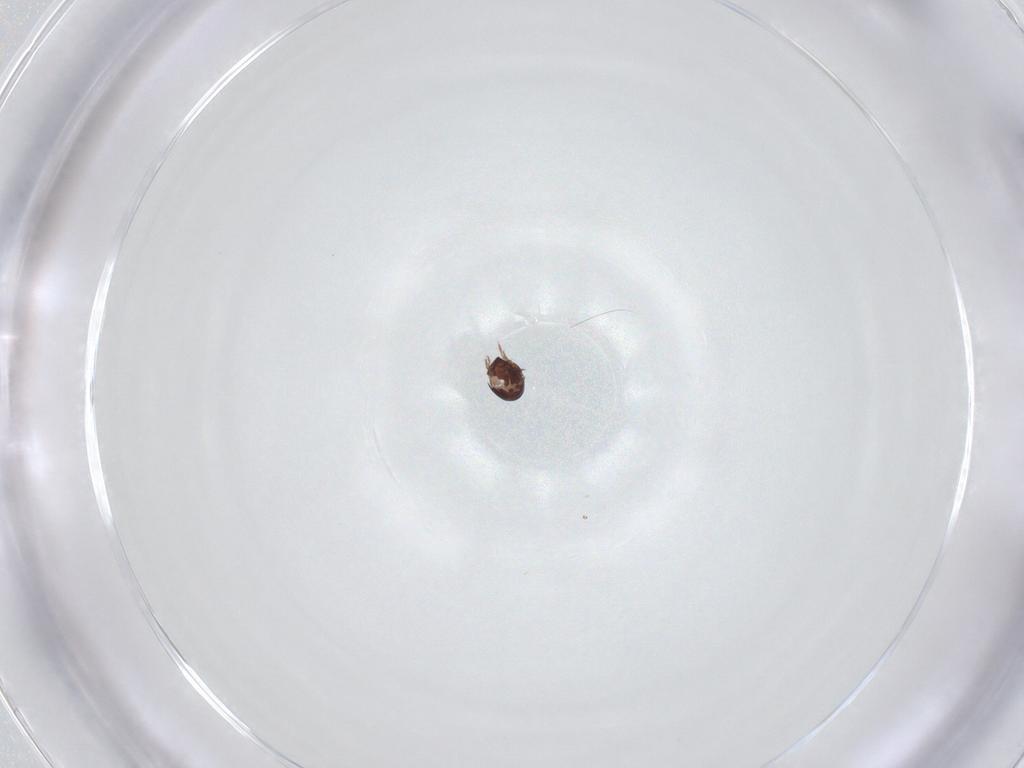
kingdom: Animalia
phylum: Arthropoda
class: Arachnida
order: Sarcoptiformes
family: Cymbaeremaeidae
